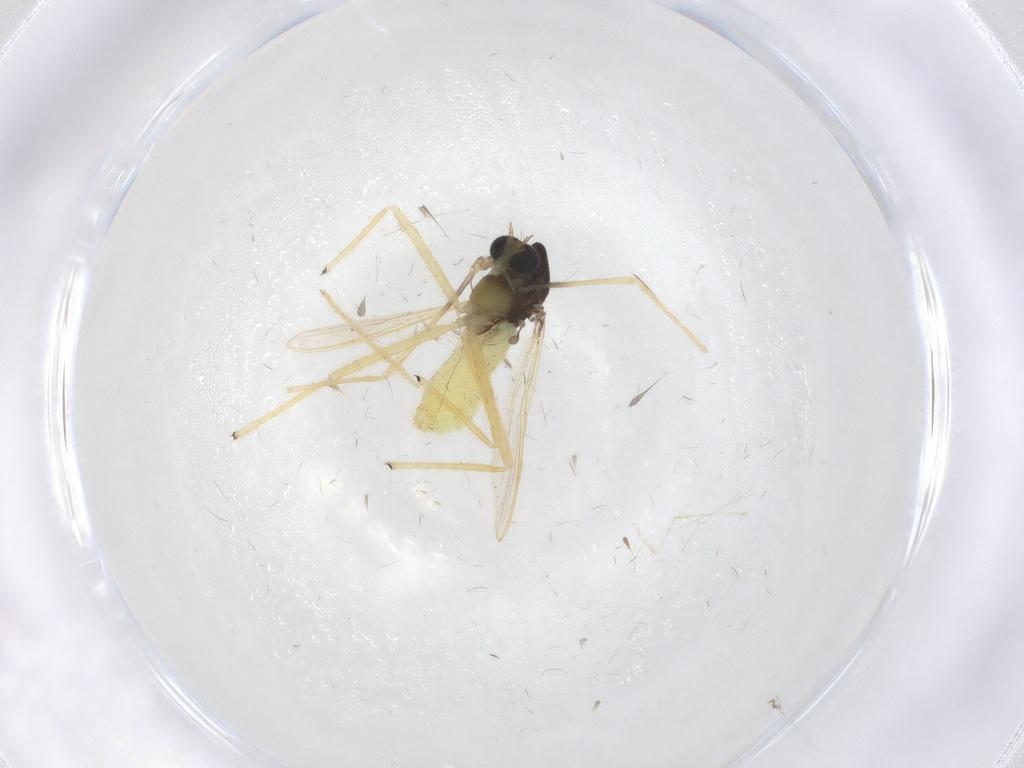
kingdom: Animalia
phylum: Arthropoda
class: Insecta
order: Diptera
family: Chironomidae
